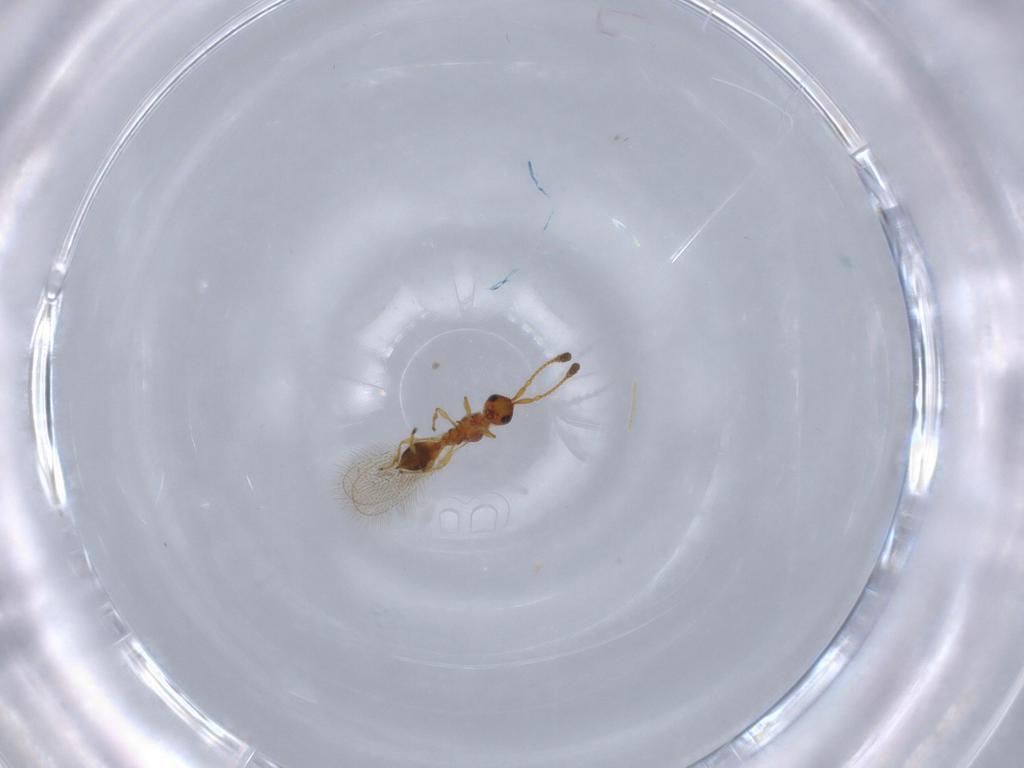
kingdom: Animalia
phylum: Arthropoda
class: Insecta
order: Hymenoptera
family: Diapriidae
